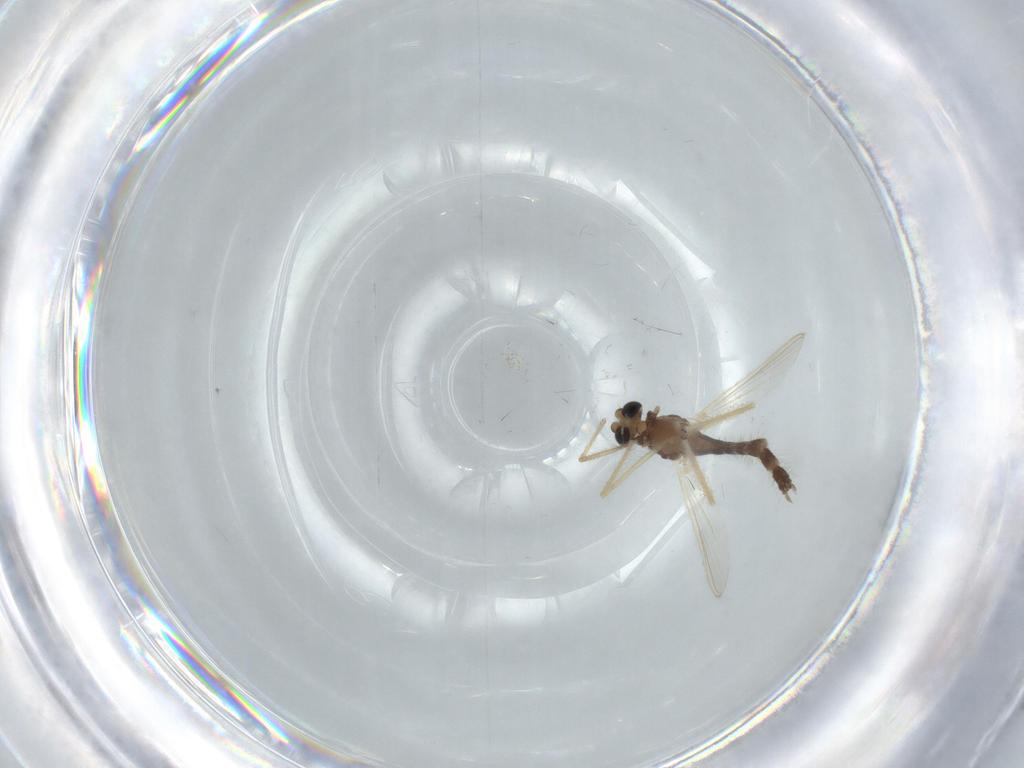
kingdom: Animalia
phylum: Arthropoda
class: Insecta
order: Diptera
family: Chironomidae
